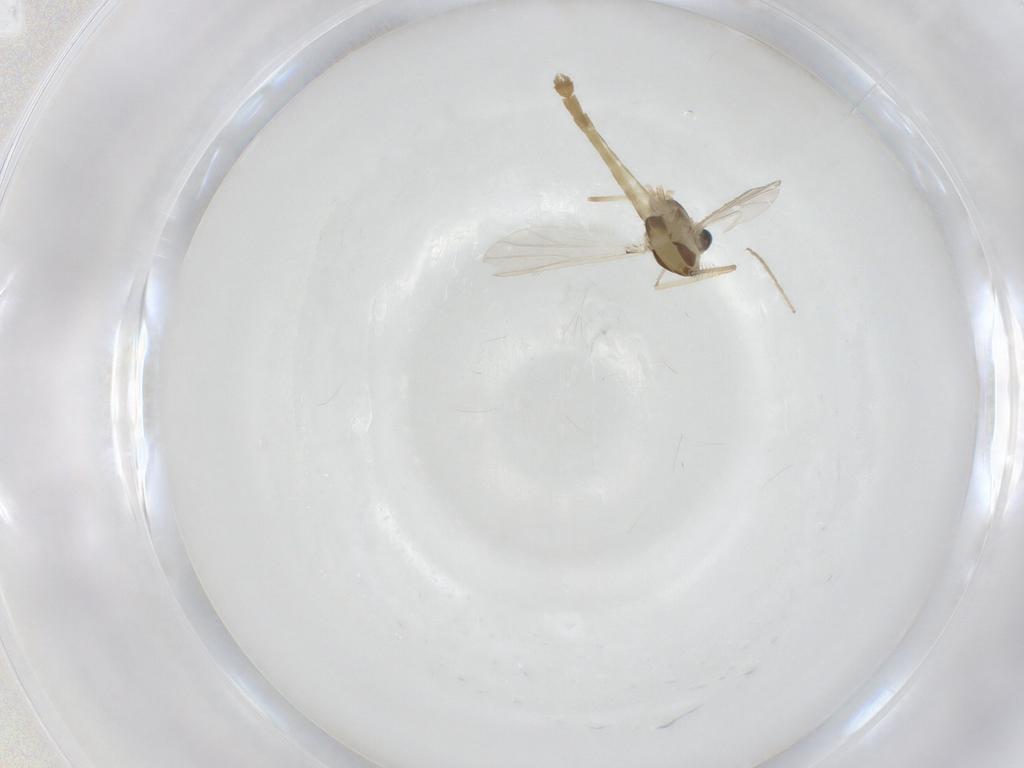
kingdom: Animalia
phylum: Arthropoda
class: Insecta
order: Diptera
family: Chironomidae
